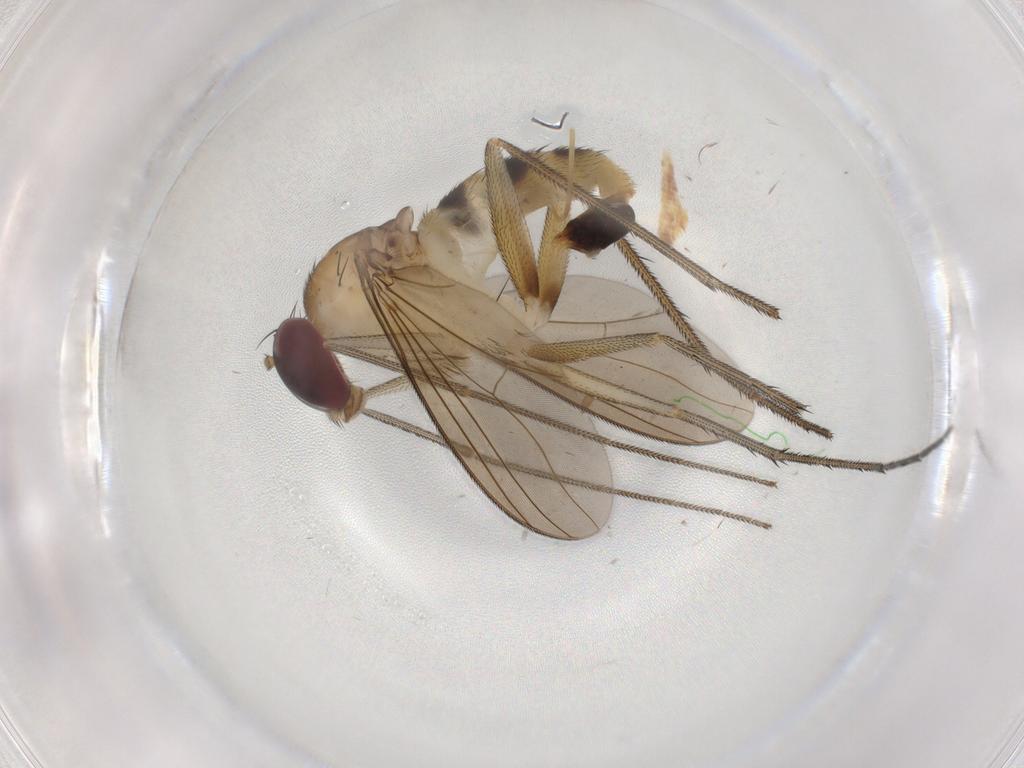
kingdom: Animalia
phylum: Arthropoda
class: Insecta
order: Diptera
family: Dolichopodidae
